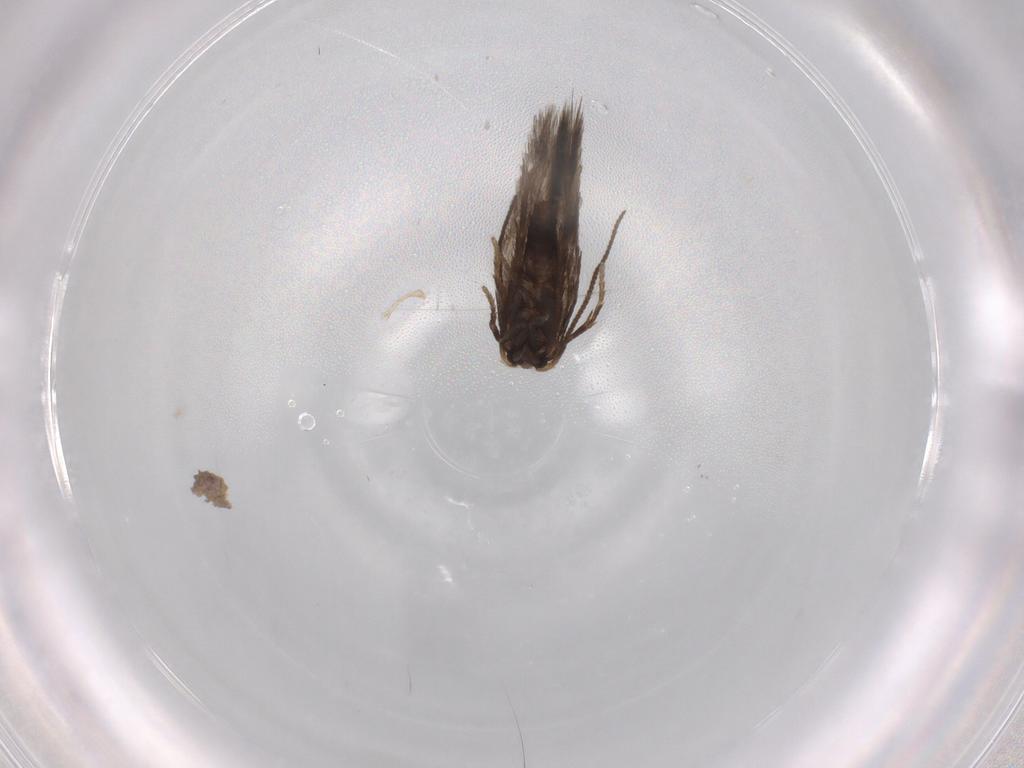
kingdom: Animalia
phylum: Arthropoda
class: Insecta
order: Lepidoptera
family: Nepticulidae
